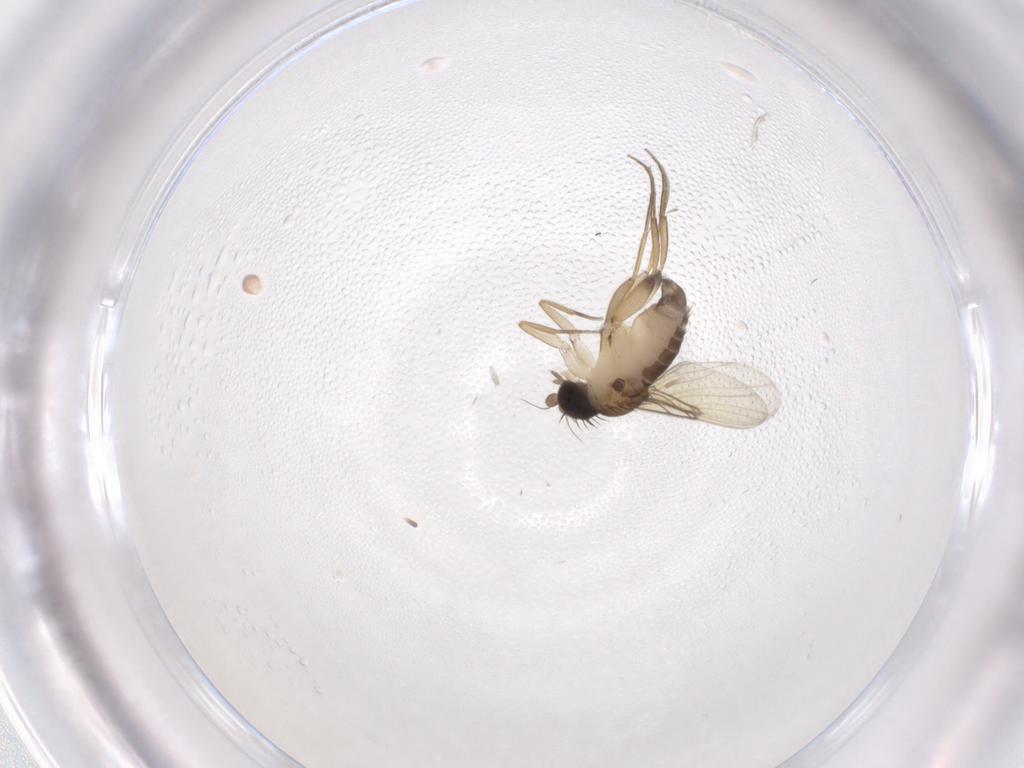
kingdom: Animalia
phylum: Arthropoda
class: Insecta
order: Diptera
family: Phoridae
